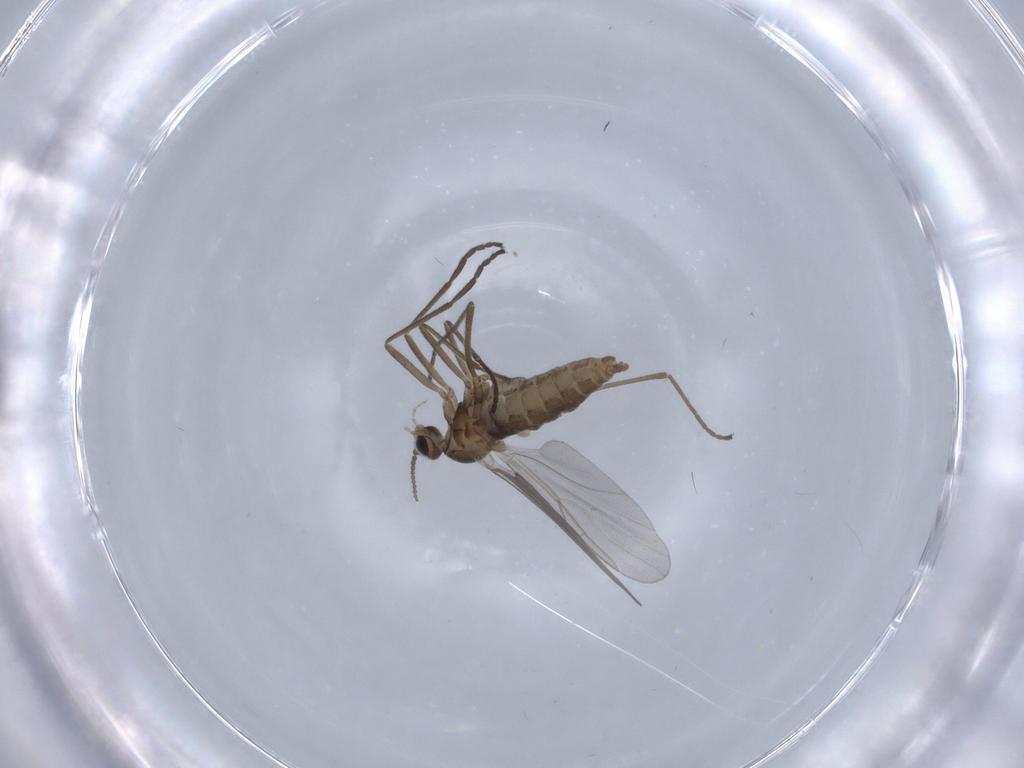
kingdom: Animalia
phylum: Arthropoda
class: Insecta
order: Diptera
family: Cecidomyiidae
